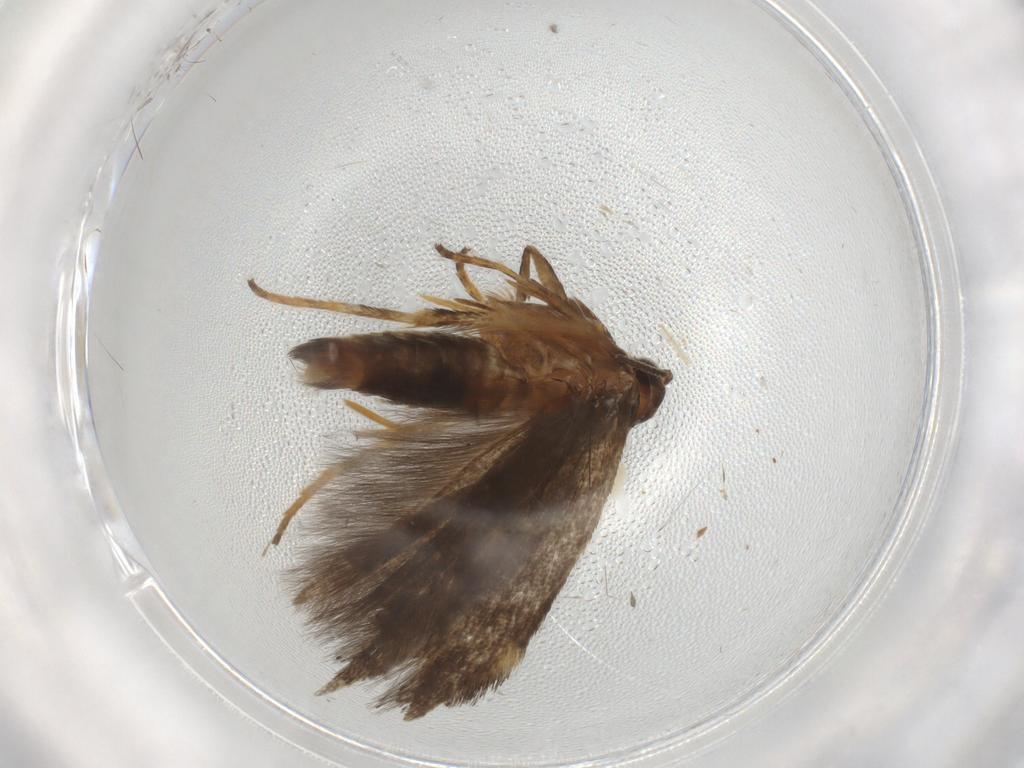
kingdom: Animalia
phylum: Arthropoda
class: Insecta
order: Lepidoptera
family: Gelechiidae
